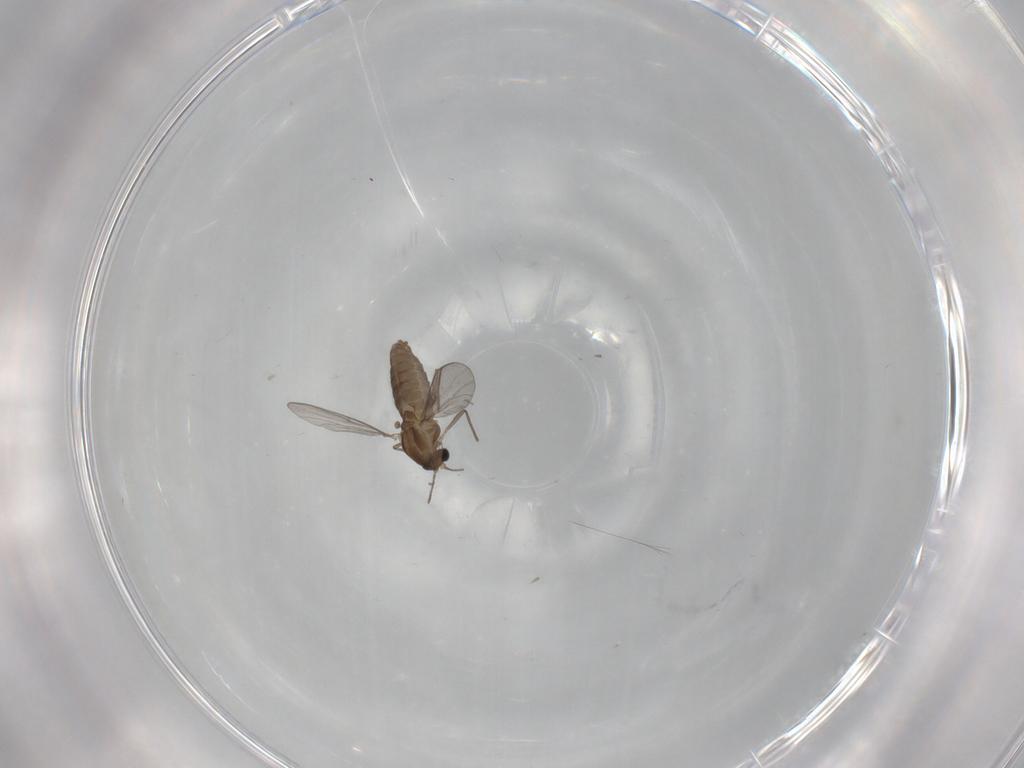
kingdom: Animalia
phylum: Arthropoda
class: Insecta
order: Diptera
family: Chironomidae
